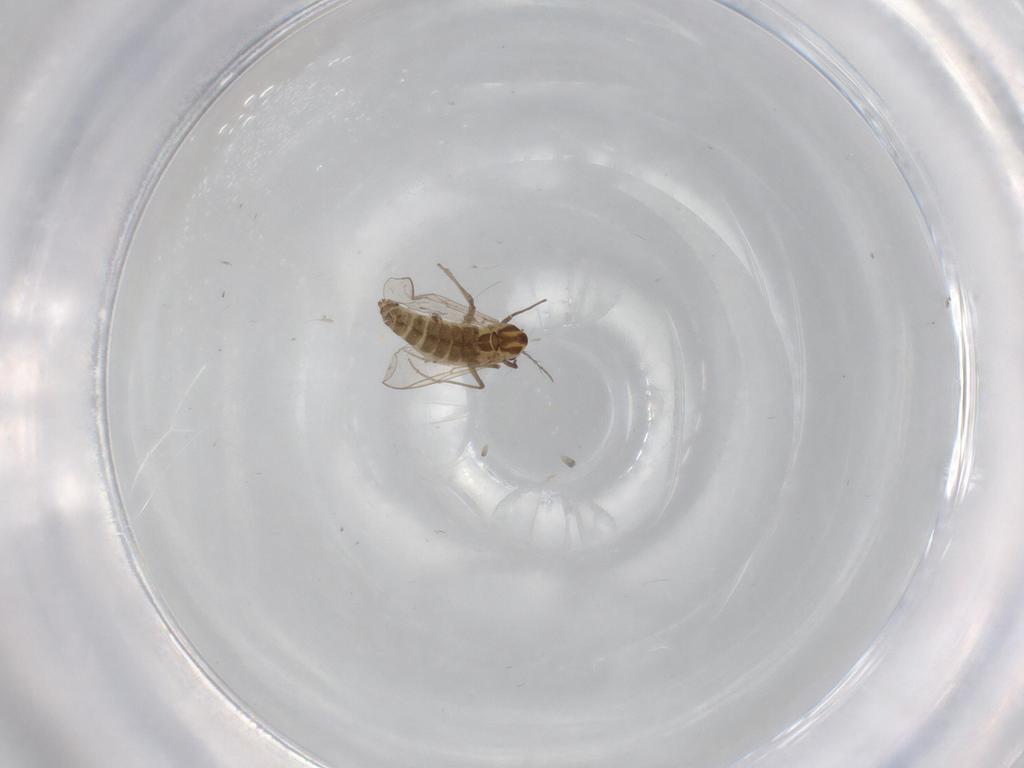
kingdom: Animalia
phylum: Arthropoda
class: Insecta
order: Diptera
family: Chironomidae
